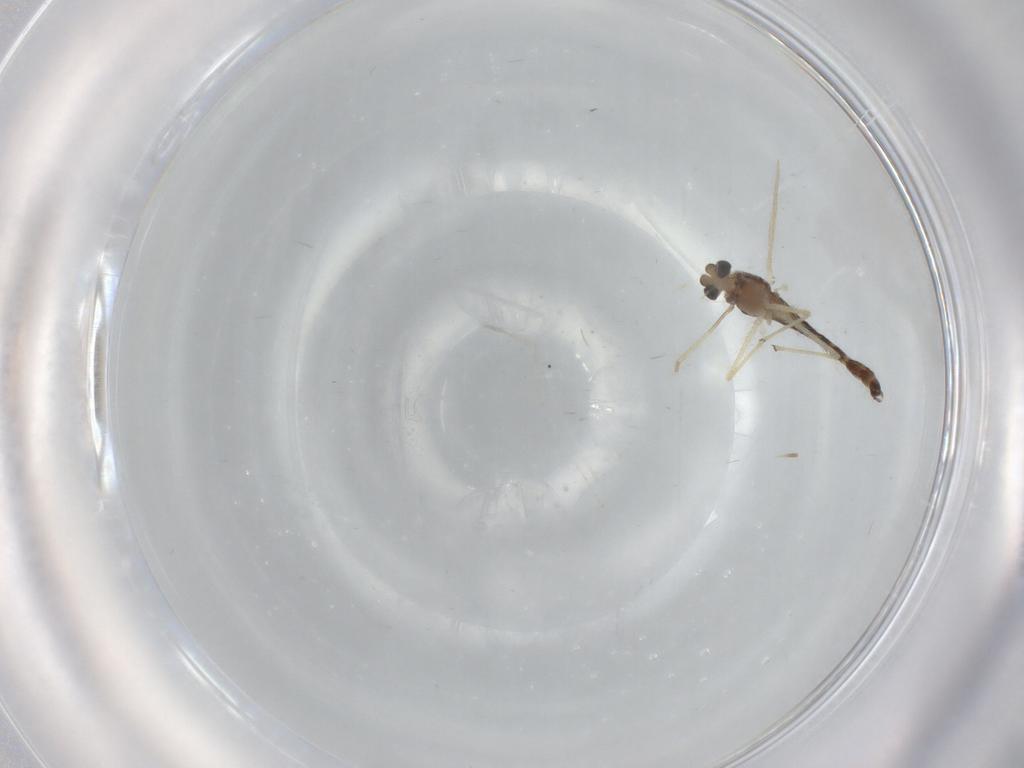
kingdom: Animalia
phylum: Arthropoda
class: Insecta
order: Diptera
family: Chironomidae
